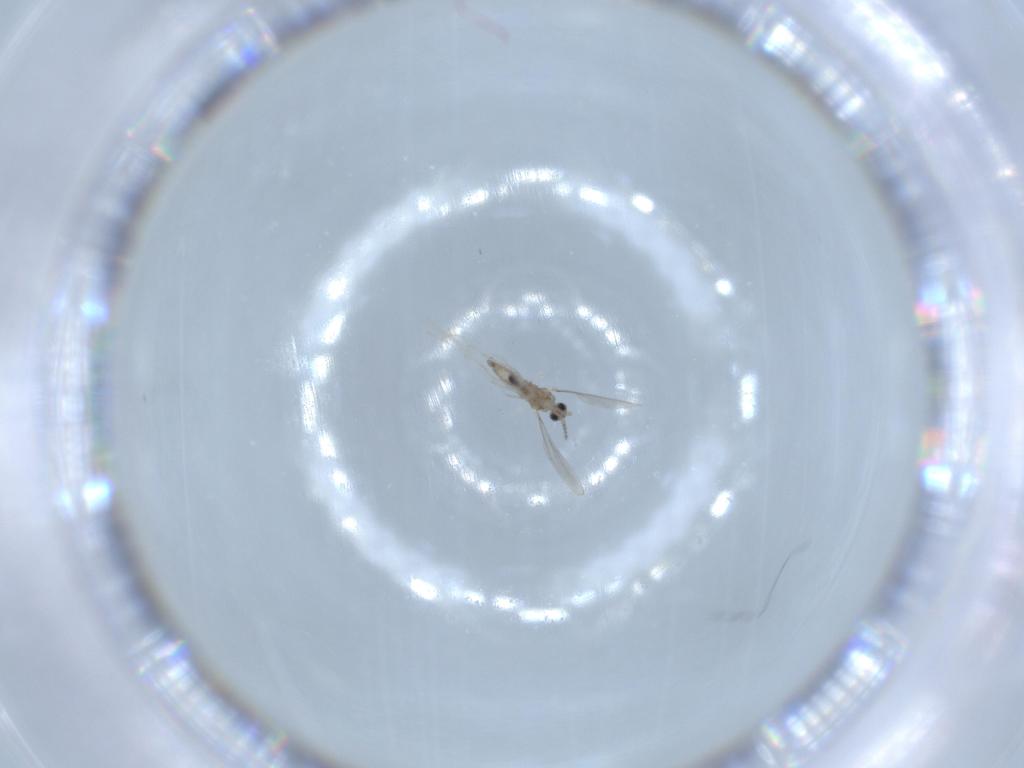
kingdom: Animalia
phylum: Arthropoda
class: Insecta
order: Diptera
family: Cecidomyiidae
